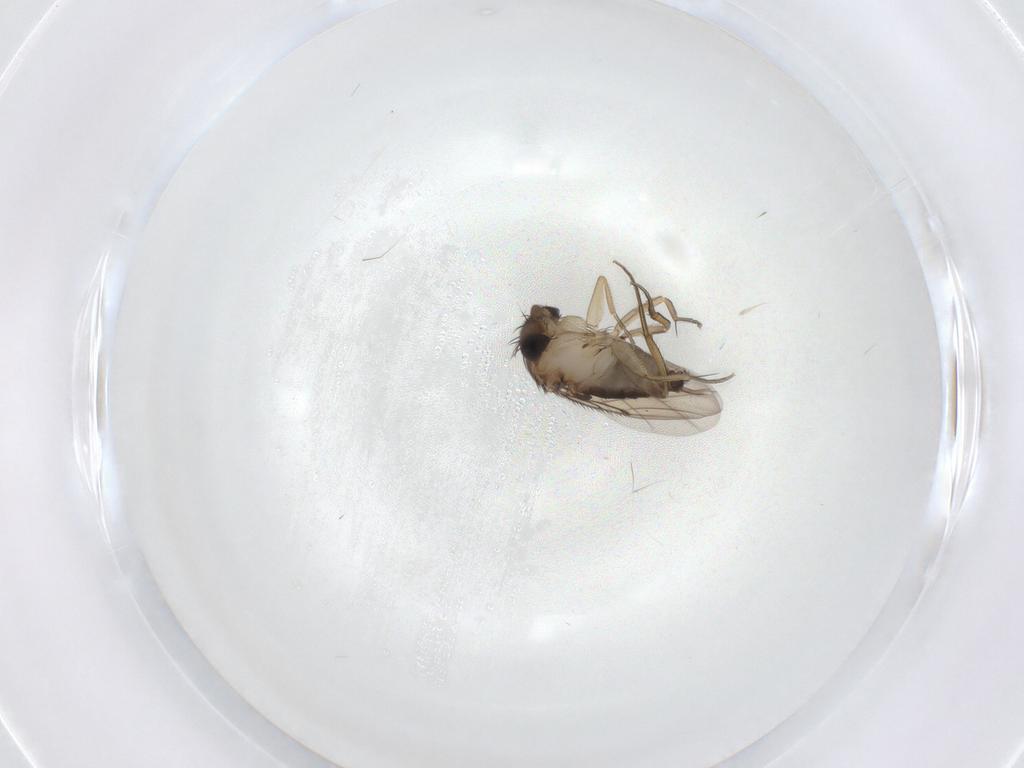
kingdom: Animalia
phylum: Arthropoda
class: Insecta
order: Diptera
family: Phoridae
